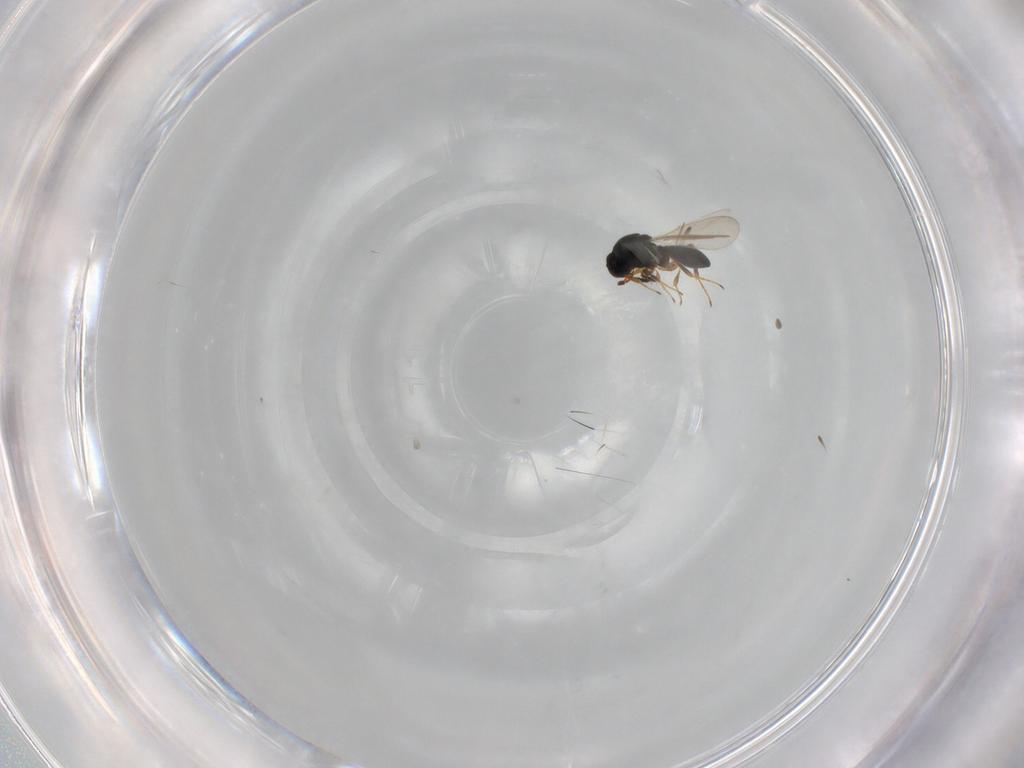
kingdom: Animalia
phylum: Arthropoda
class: Insecta
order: Hymenoptera
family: Platygastridae
